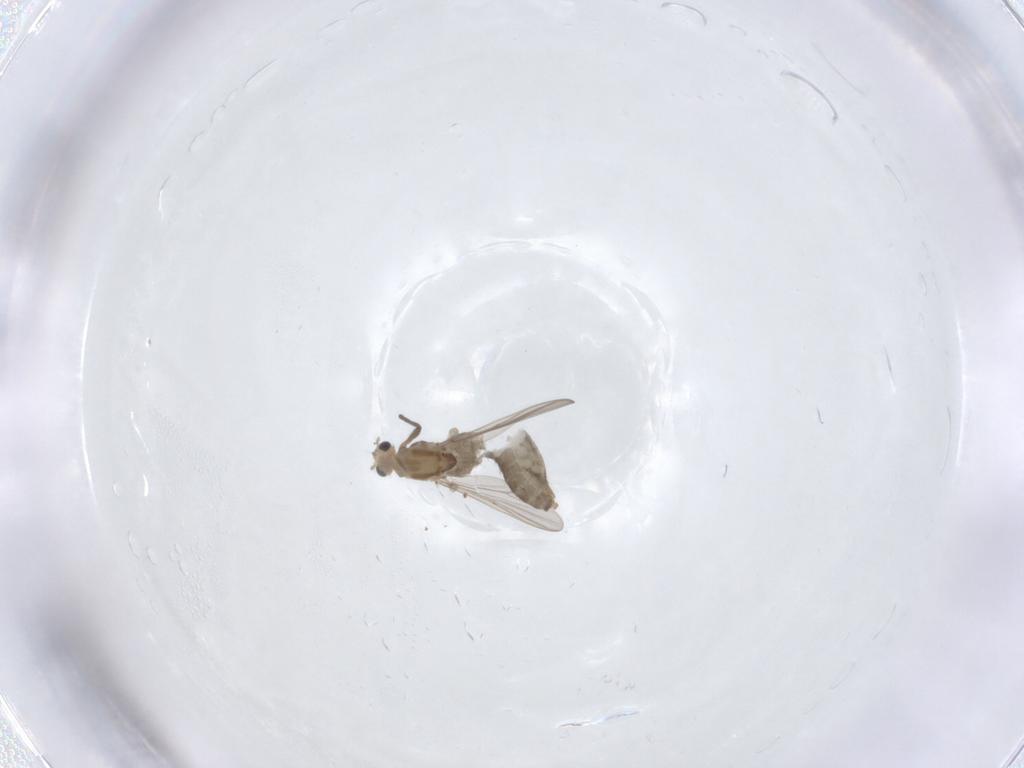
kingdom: Animalia
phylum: Arthropoda
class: Insecta
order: Diptera
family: Chironomidae
